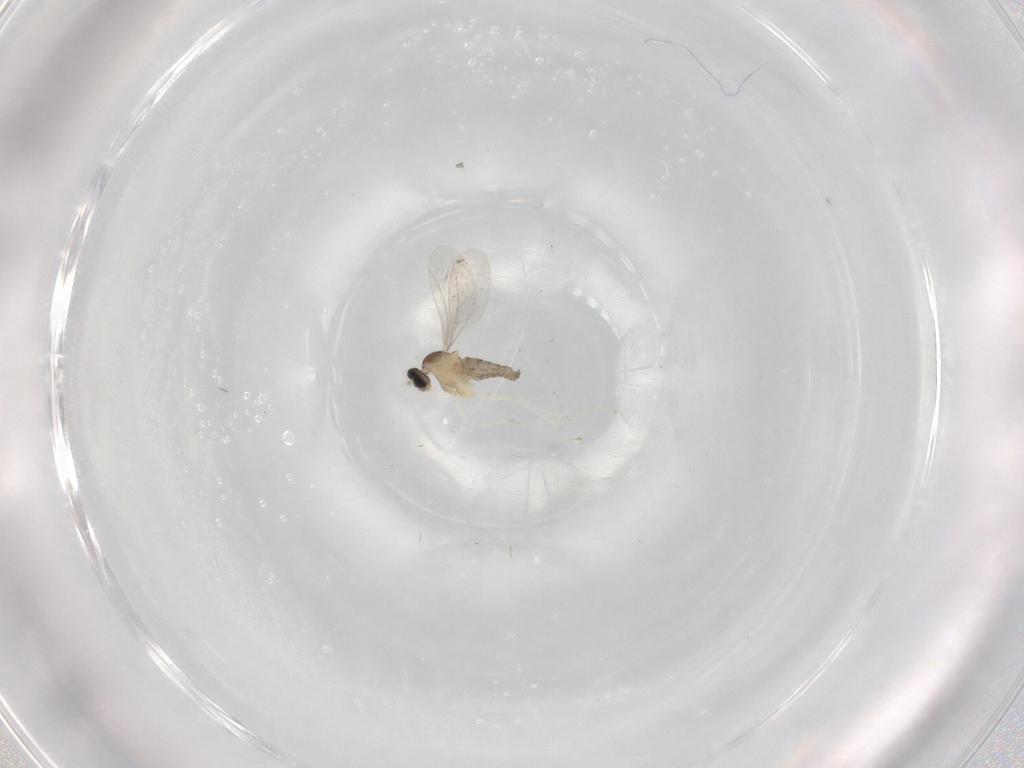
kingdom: Animalia
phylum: Arthropoda
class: Insecta
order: Diptera
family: Cecidomyiidae
